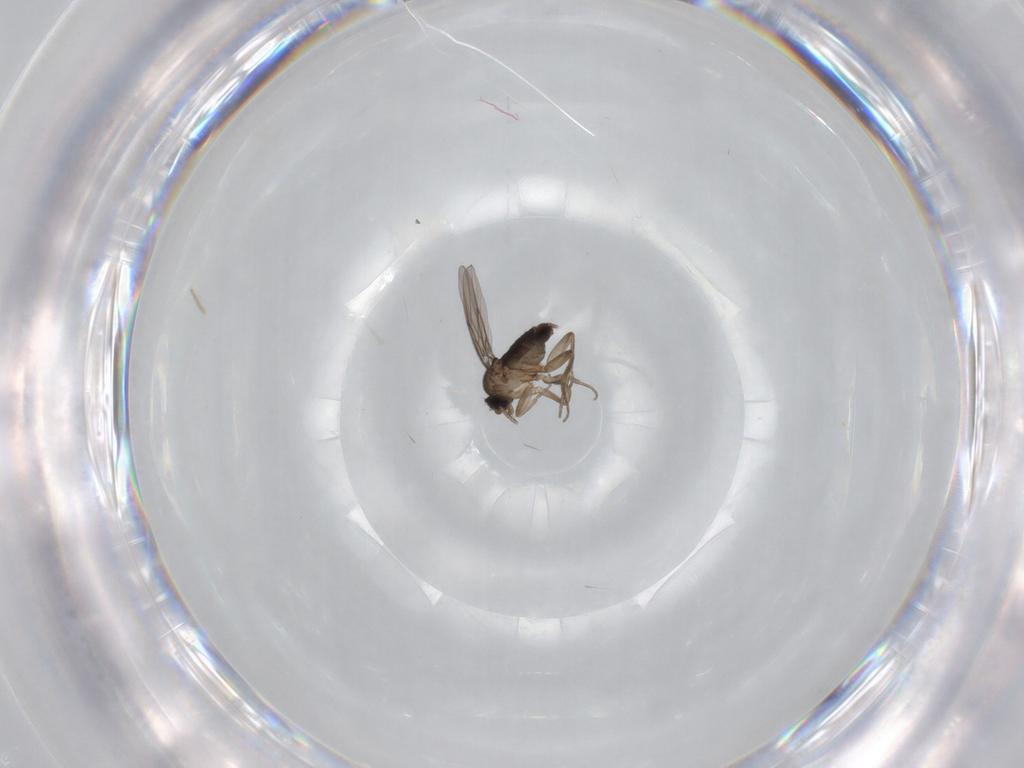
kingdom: Animalia
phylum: Arthropoda
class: Insecta
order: Diptera
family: Phoridae
